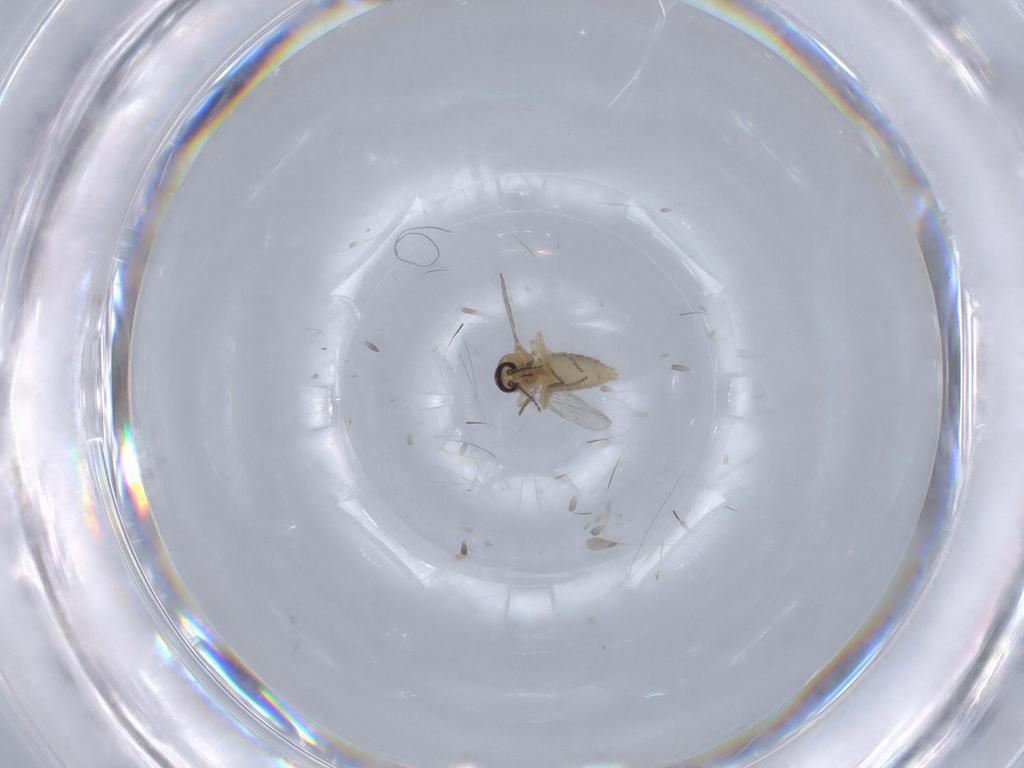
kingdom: Animalia
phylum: Arthropoda
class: Insecta
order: Diptera
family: Ceratopogonidae
